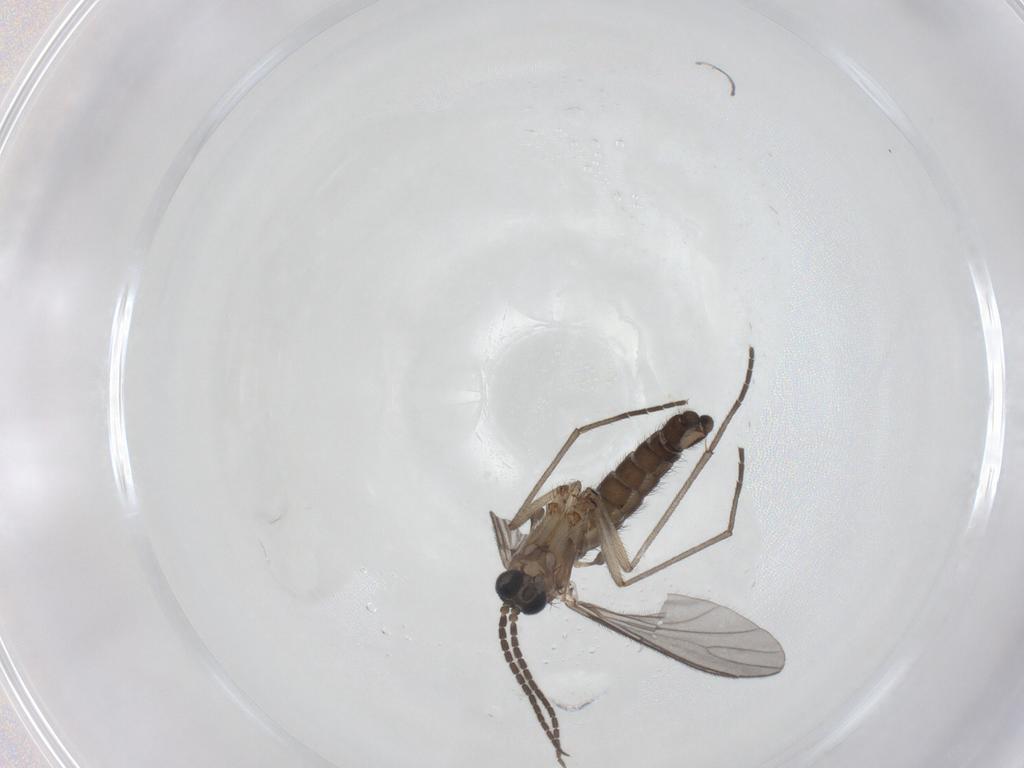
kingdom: Animalia
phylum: Arthropoda
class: Insecta
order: Diptera
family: Sciaridae
